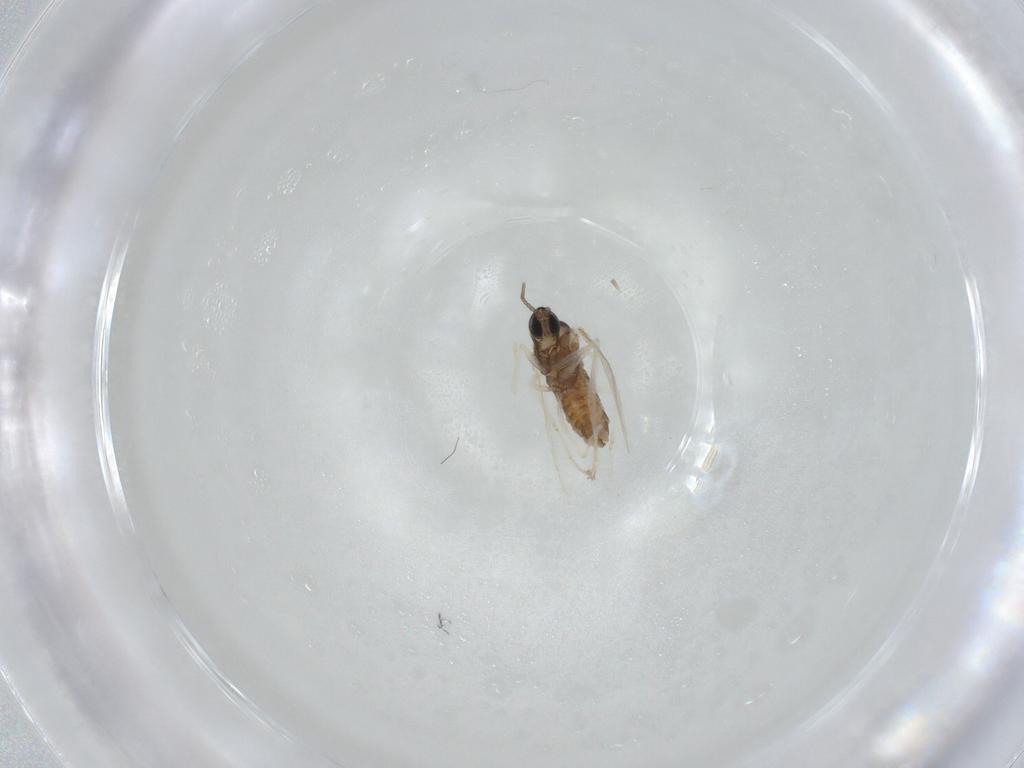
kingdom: Animalia
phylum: Arthropoda
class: Insecta
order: Diptera
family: Cecidomyiidae
